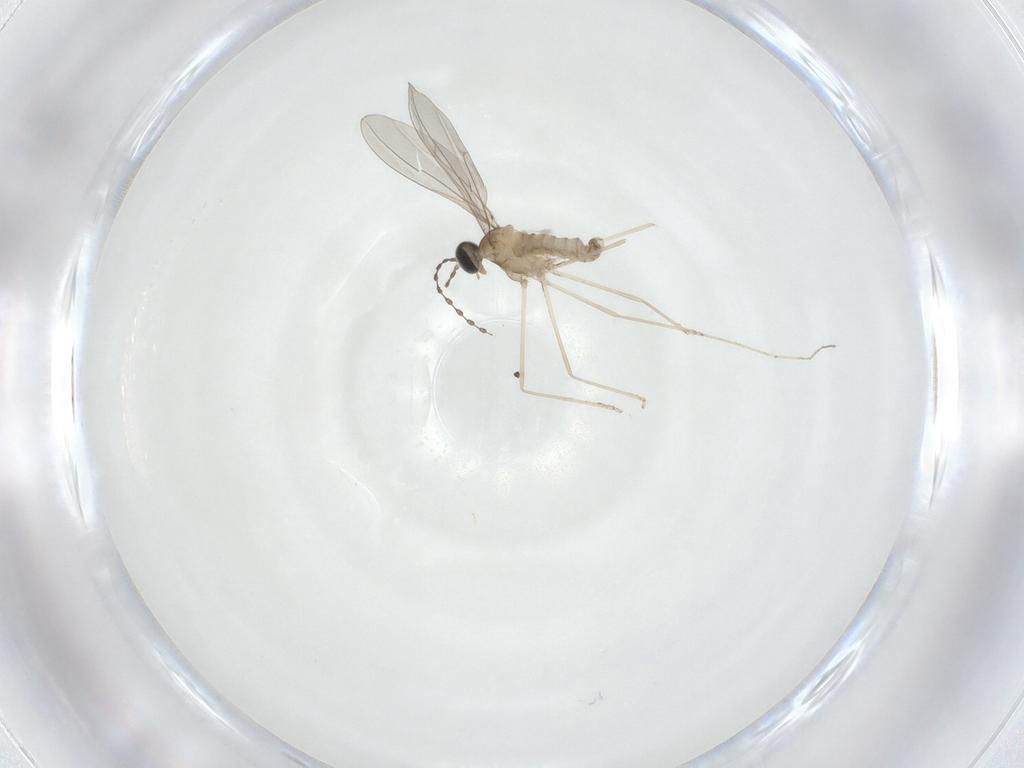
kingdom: Animalia
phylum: Arthropoda
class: Insecta
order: Diptera
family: Cecidomyiidae
